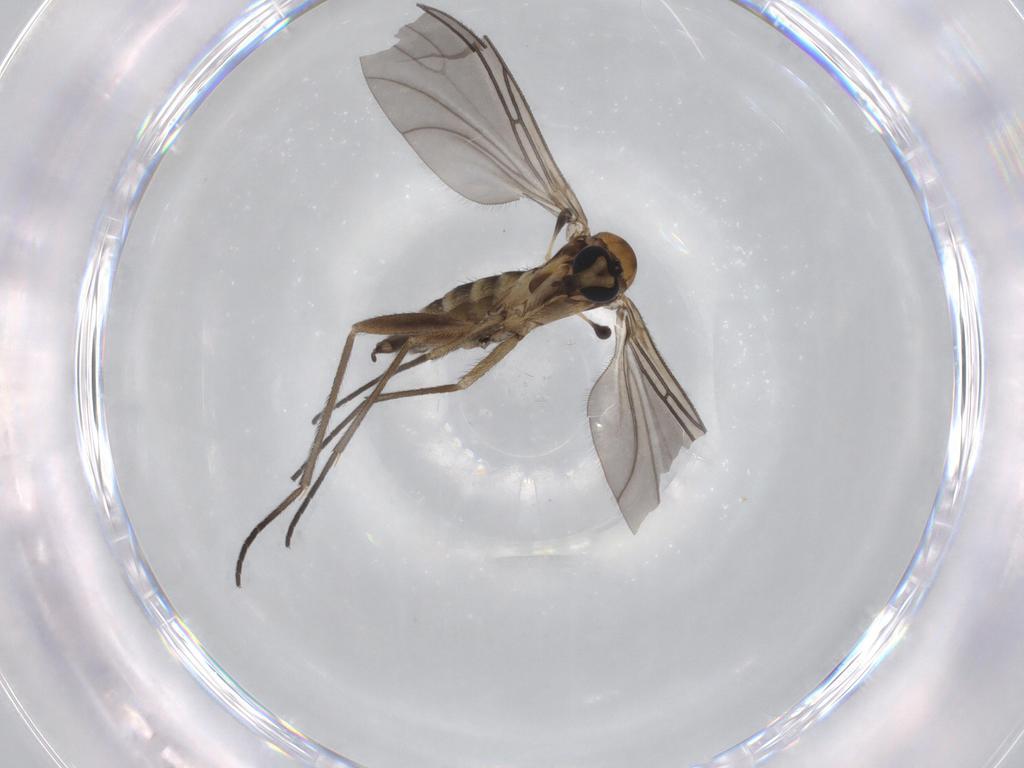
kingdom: Animalia
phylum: Arthropoda
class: Insecta
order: Diptera
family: Sciaridae
